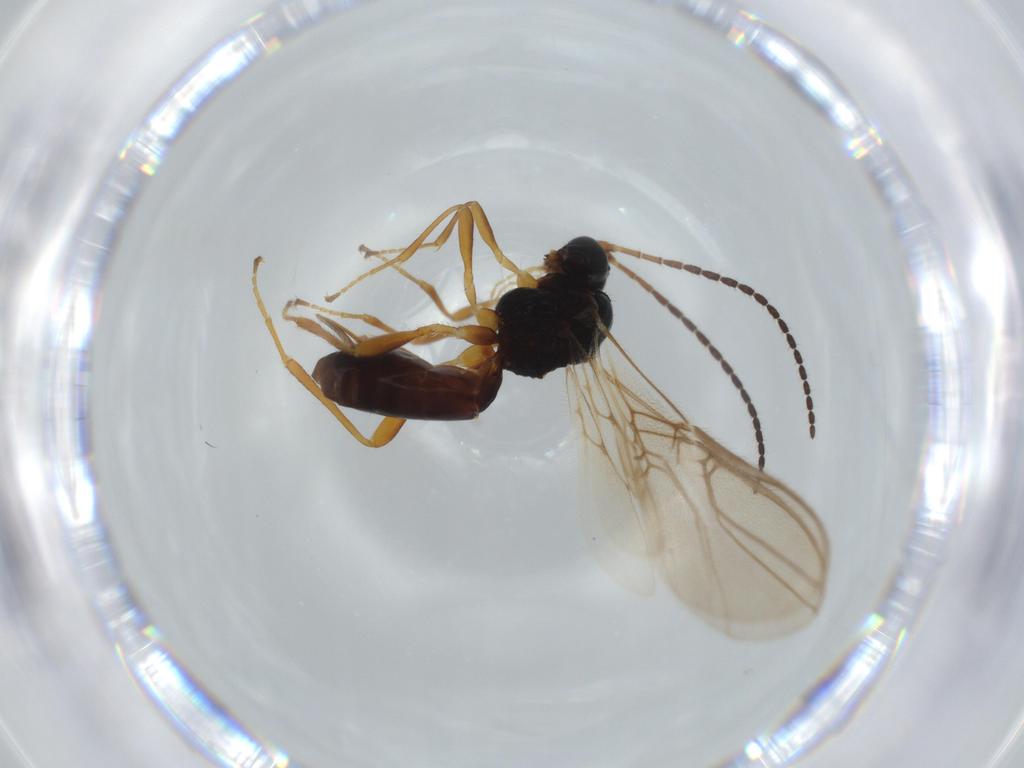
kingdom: Animalia
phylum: Arthropoda
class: Insecta
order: Hymenoptera
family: Braconidae
